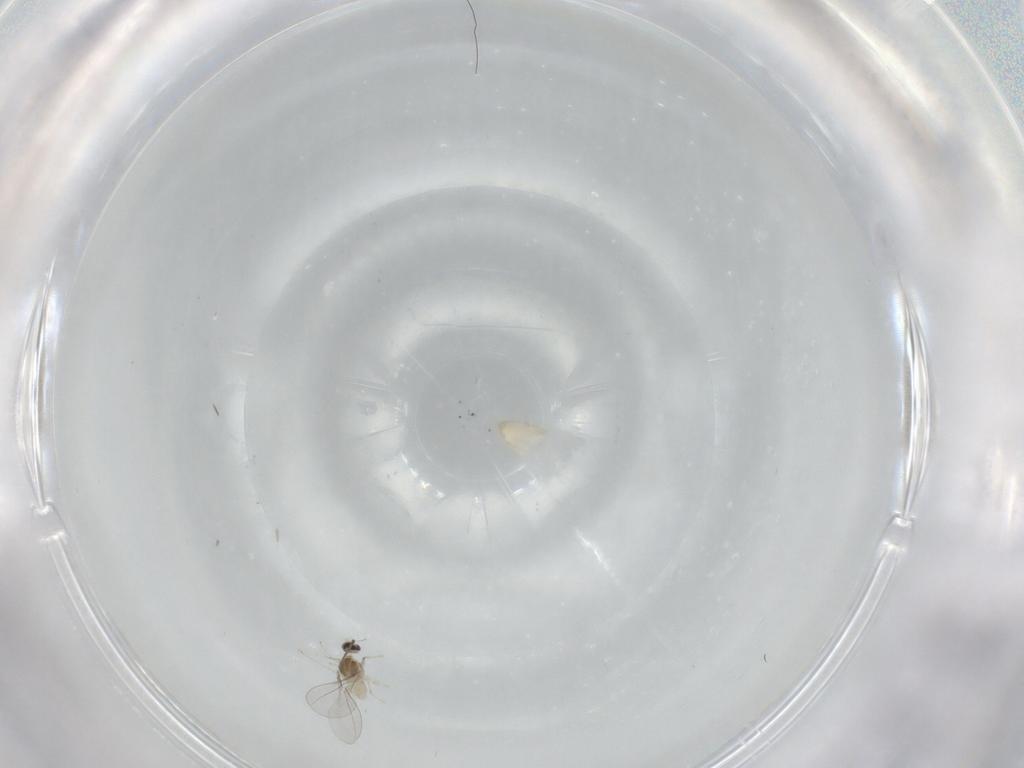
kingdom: Animalia
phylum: Arthropoda
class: Insecta
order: Diptera
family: Cecidomyiidae
